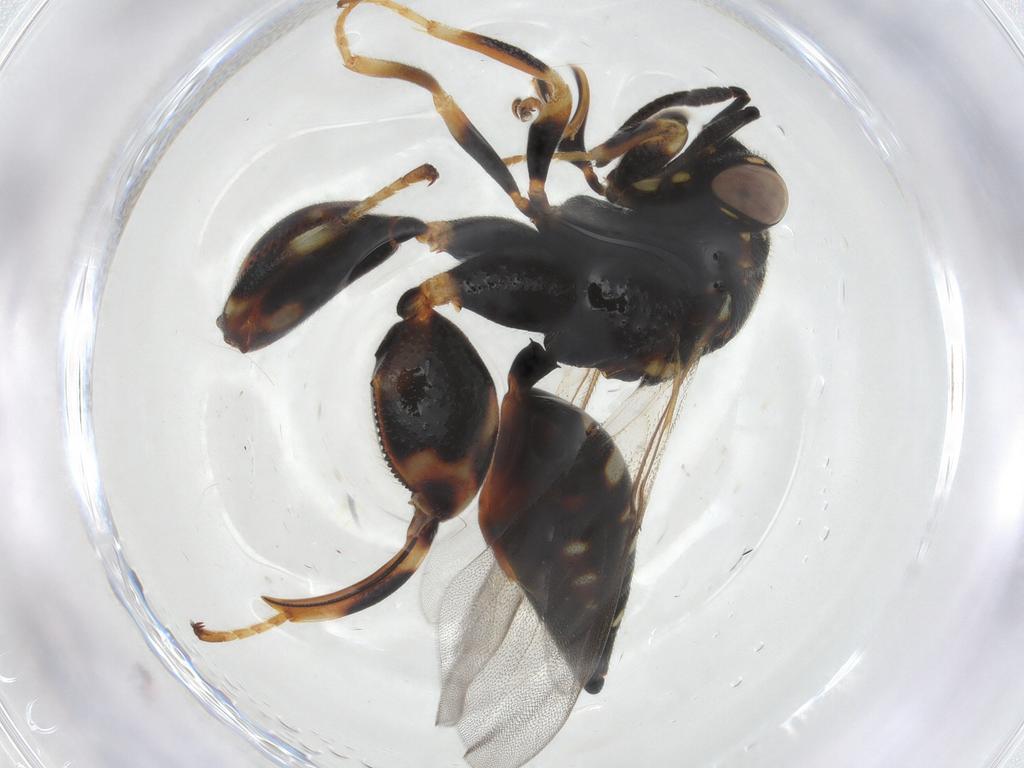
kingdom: Animalia
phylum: Arthropoda
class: Insecta
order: Hymenoptera
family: Chalcididae
